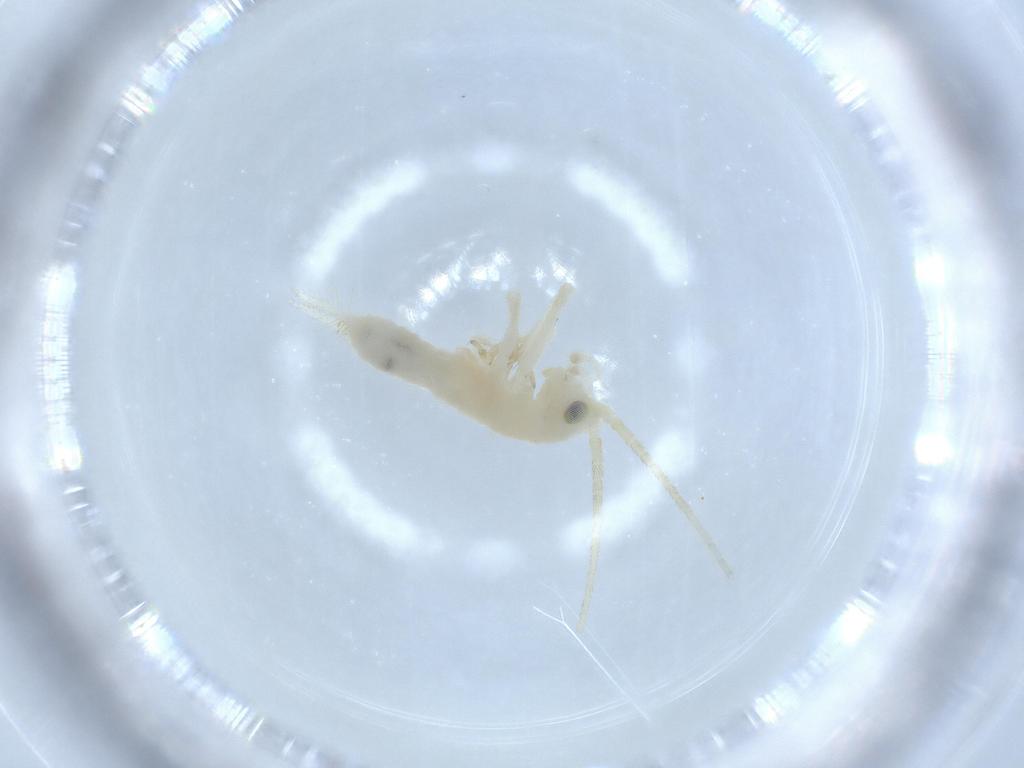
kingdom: Animalia
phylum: Arthropoda
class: Insecta
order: Orthoptera
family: Trigonidiidae
